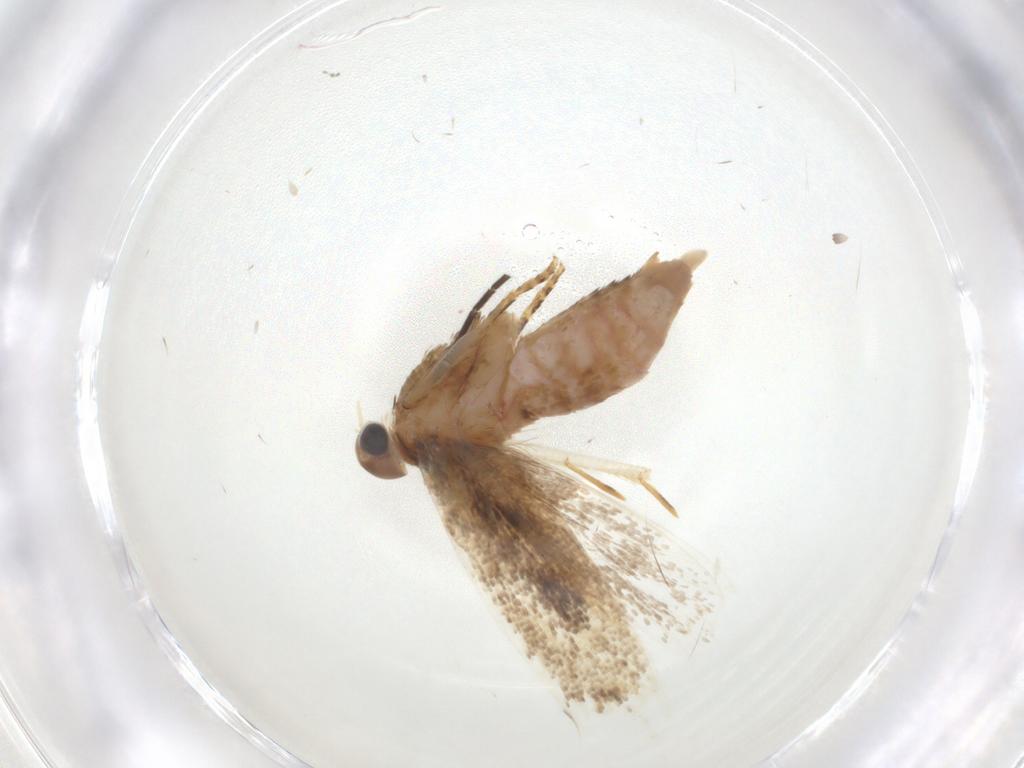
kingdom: Animalia
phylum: Arthropoda
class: Insecta
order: Lepidoptera
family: Gelechiidae
